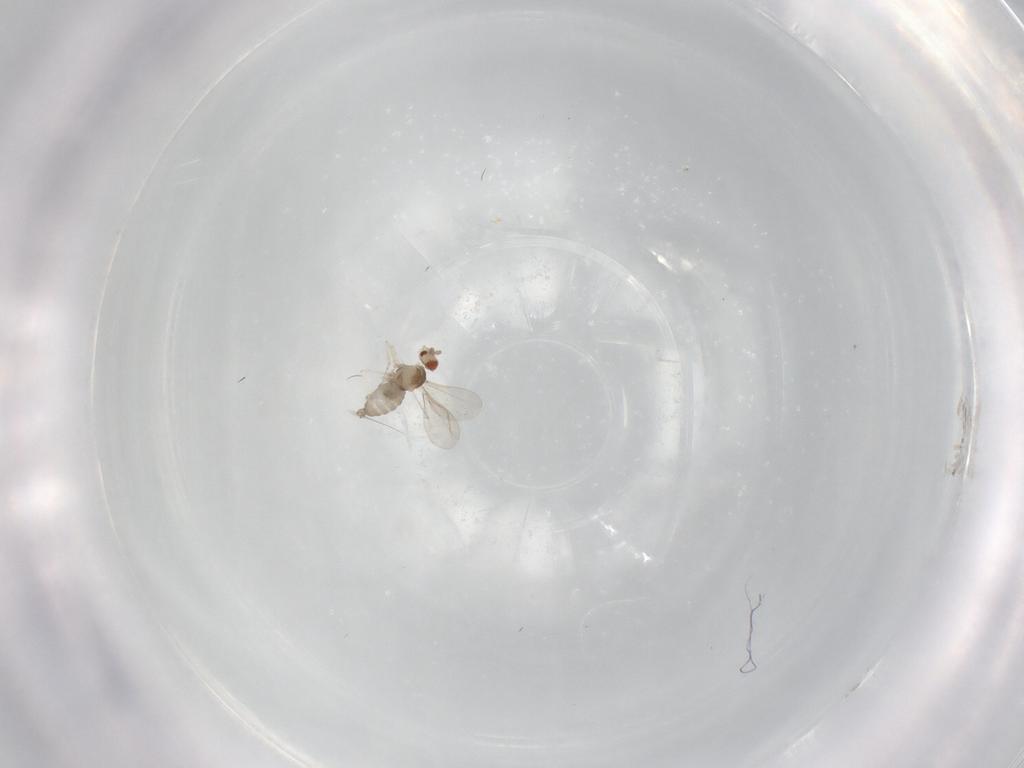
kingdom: Animalia
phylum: Arthropoda
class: Insecta
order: Diptera
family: Cecidomyiidae
